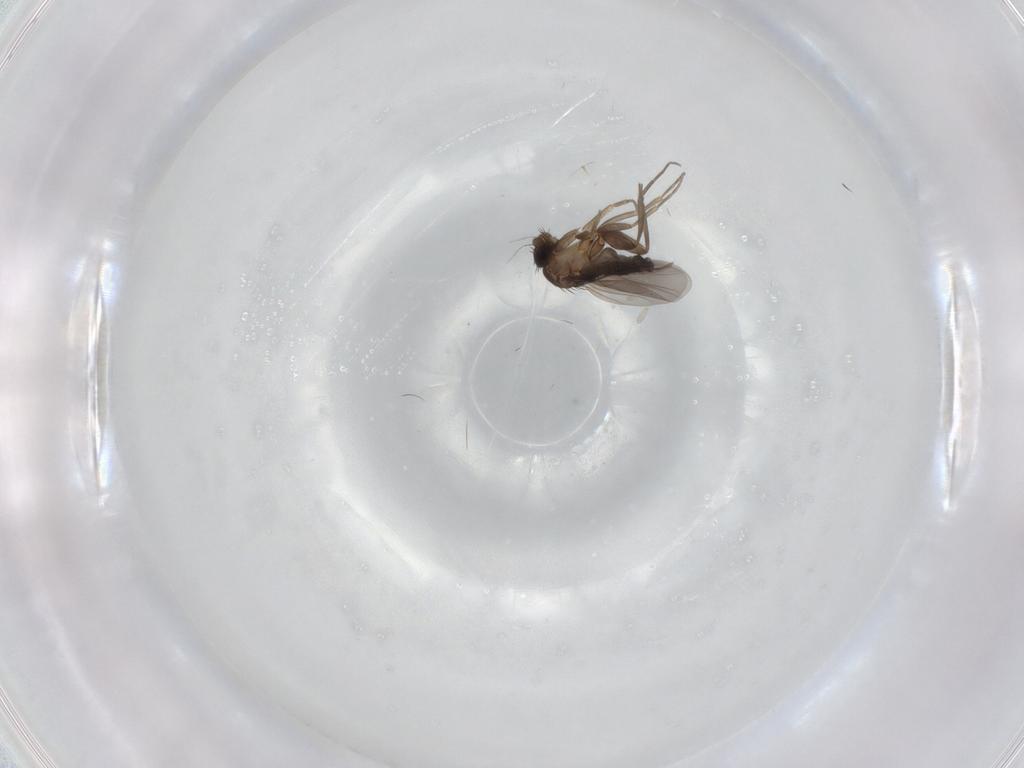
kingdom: Animalia
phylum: Arthropoda
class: Insecta
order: Diptera
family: Phoridae
